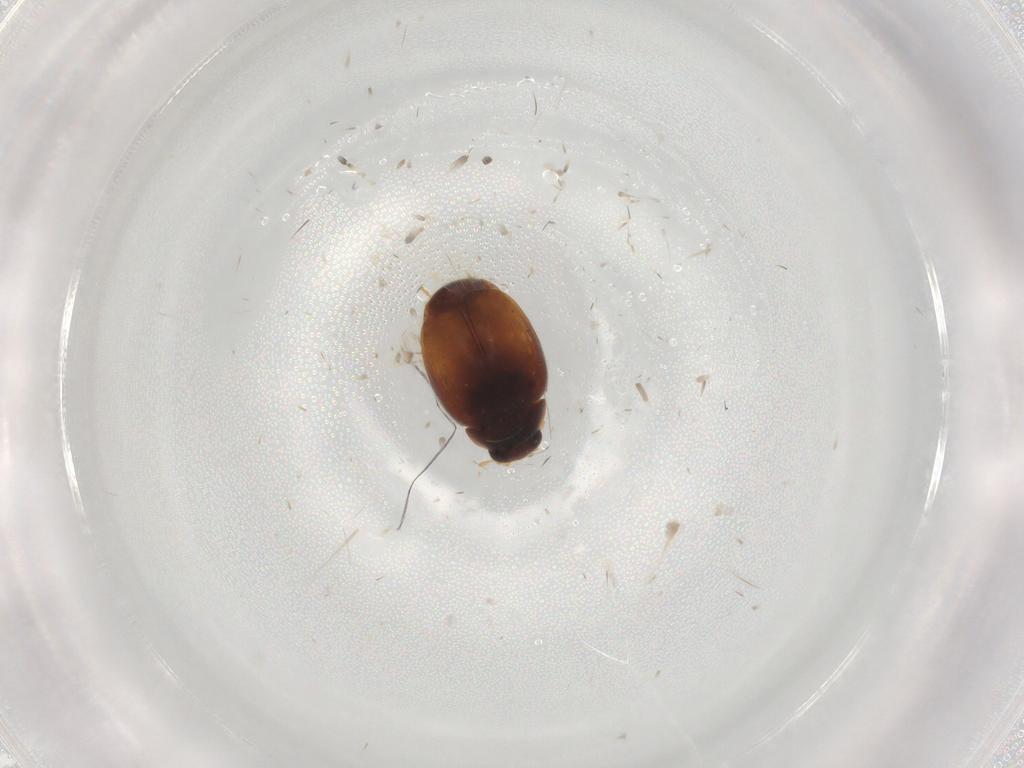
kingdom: Animalia
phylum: Arthropoda
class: Insecta
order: Coleoptera
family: Coccinellidae
